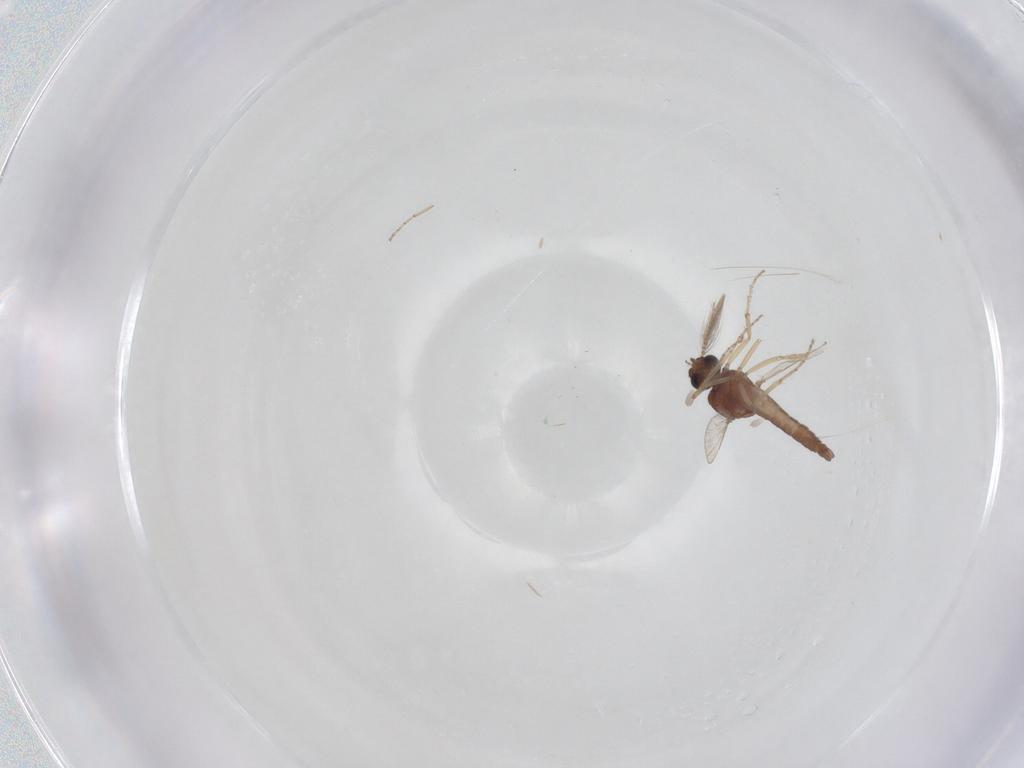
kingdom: Animalia
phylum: Arthropoda
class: Insecta
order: Diptera
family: Ceratopogonidae
